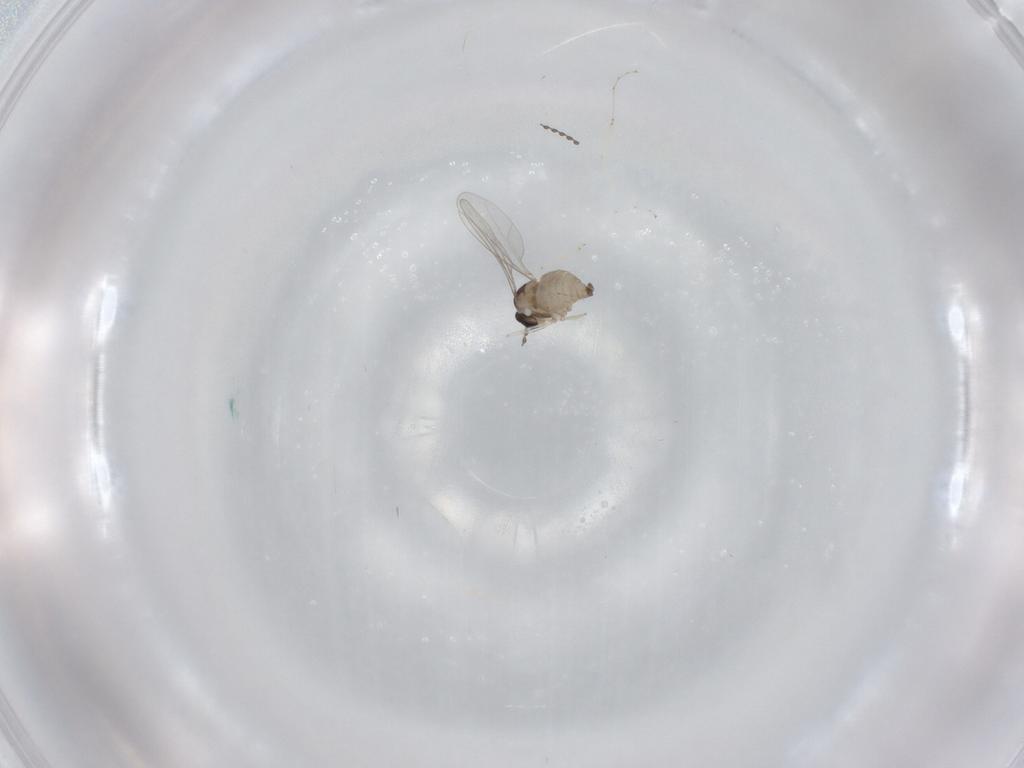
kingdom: Animalia
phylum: Arthropoda
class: Insecta
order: Diptera
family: Cecidomyiidae
